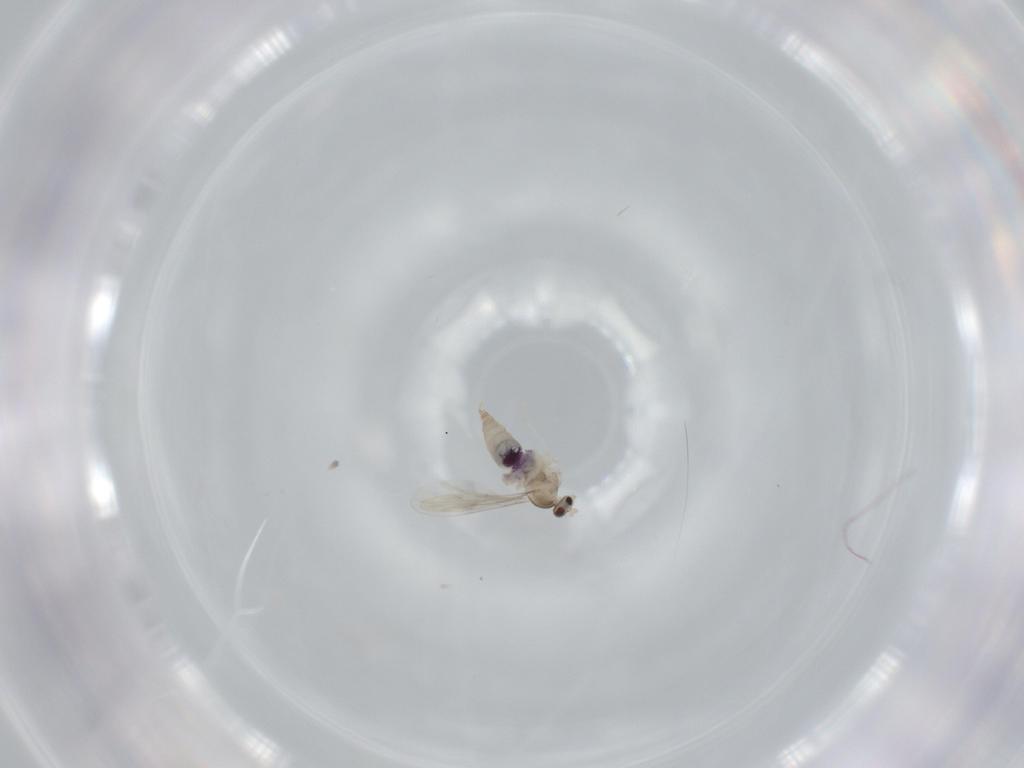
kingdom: Animalia
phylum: Arthropoda
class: Insecta
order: Diptera
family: Cecidomyiidae
